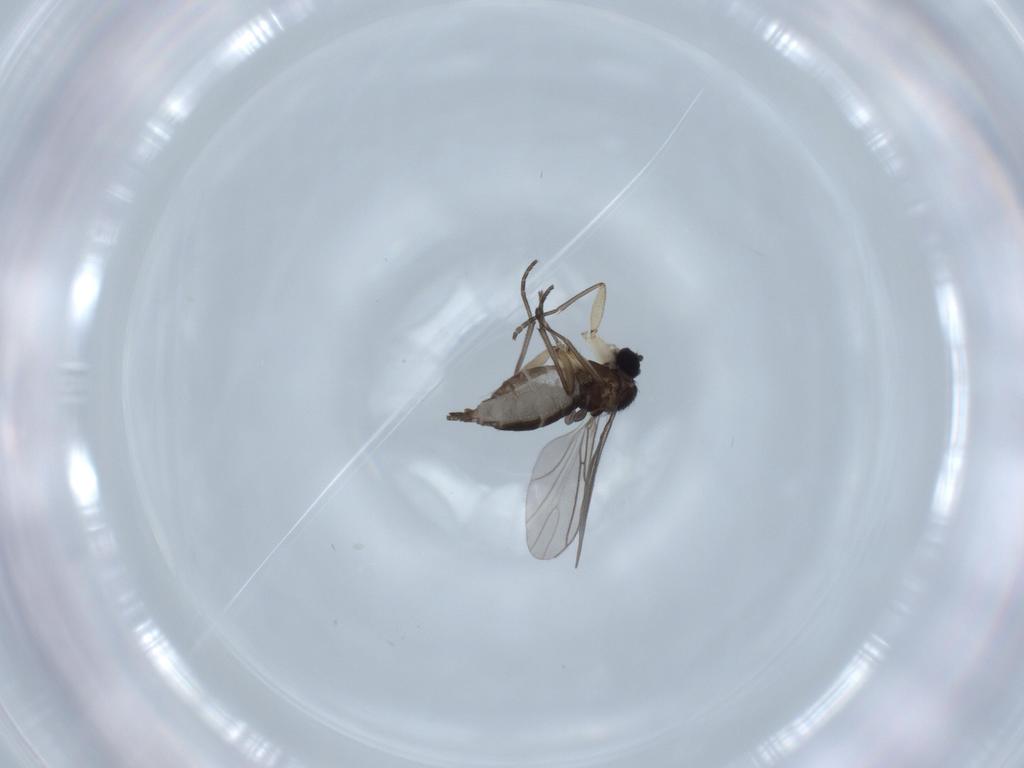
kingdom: Animalia
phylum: Arthropoda
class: Insecta
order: Diptera
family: Sciaridae
